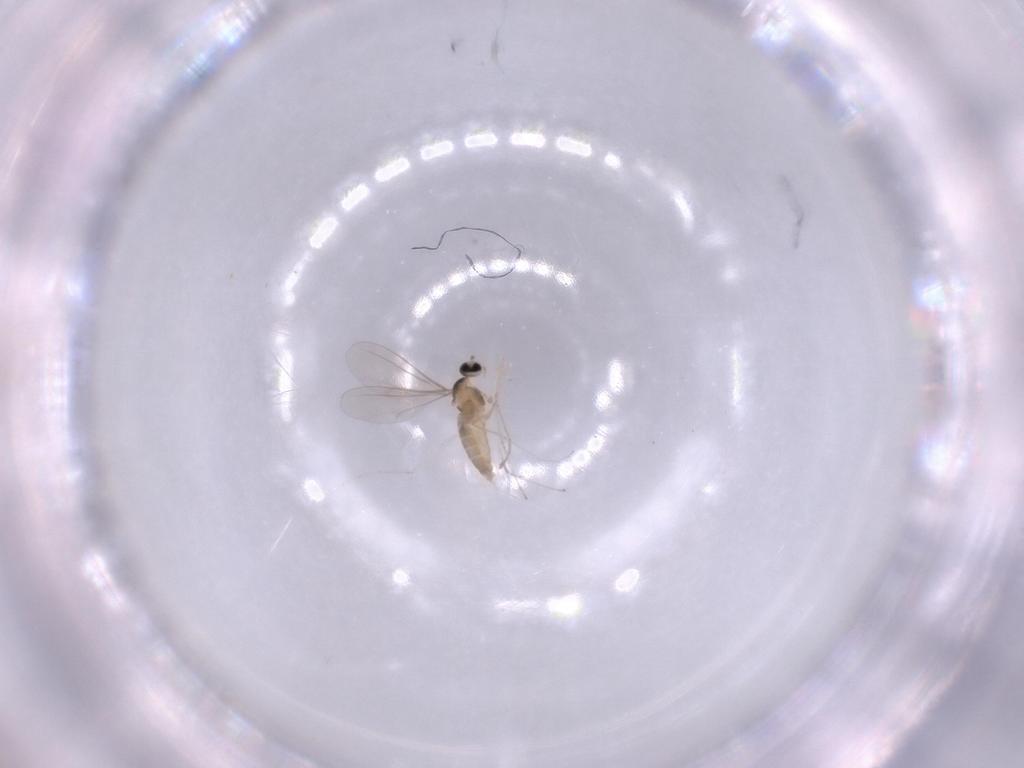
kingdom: Animalia
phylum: Arthropoda
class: Insecta
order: Diptera
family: Cecidomyiidae
